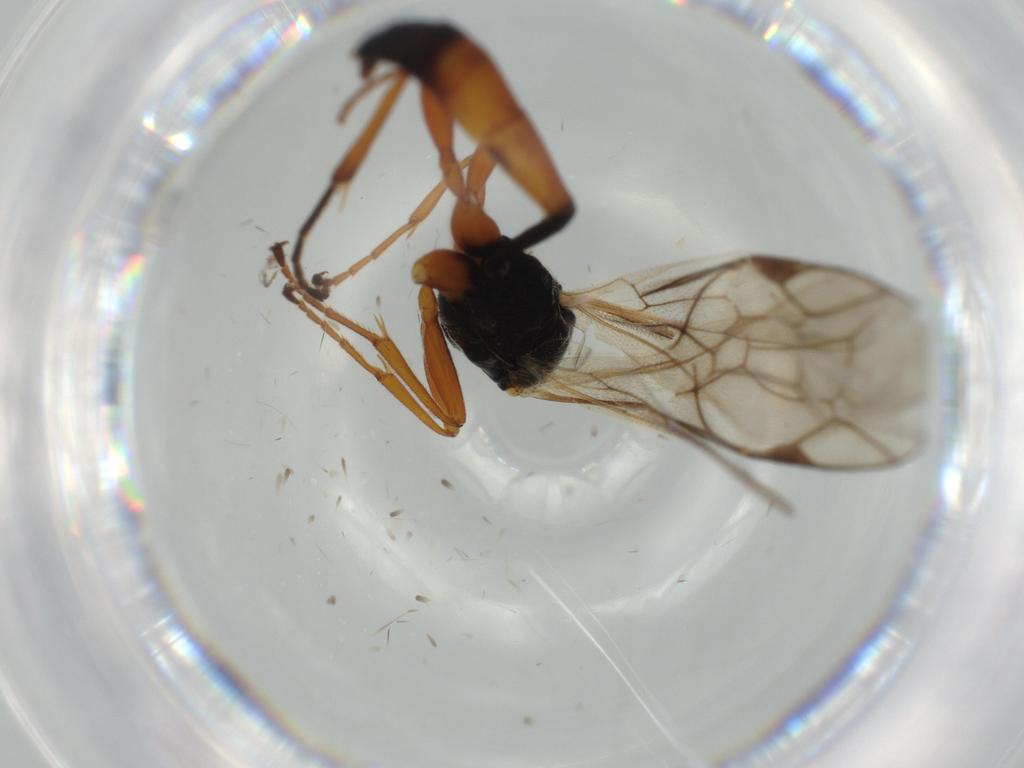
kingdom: Animalia
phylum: Arthropoda
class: Insecta
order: Hymenoptera
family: Ichneumonidae
